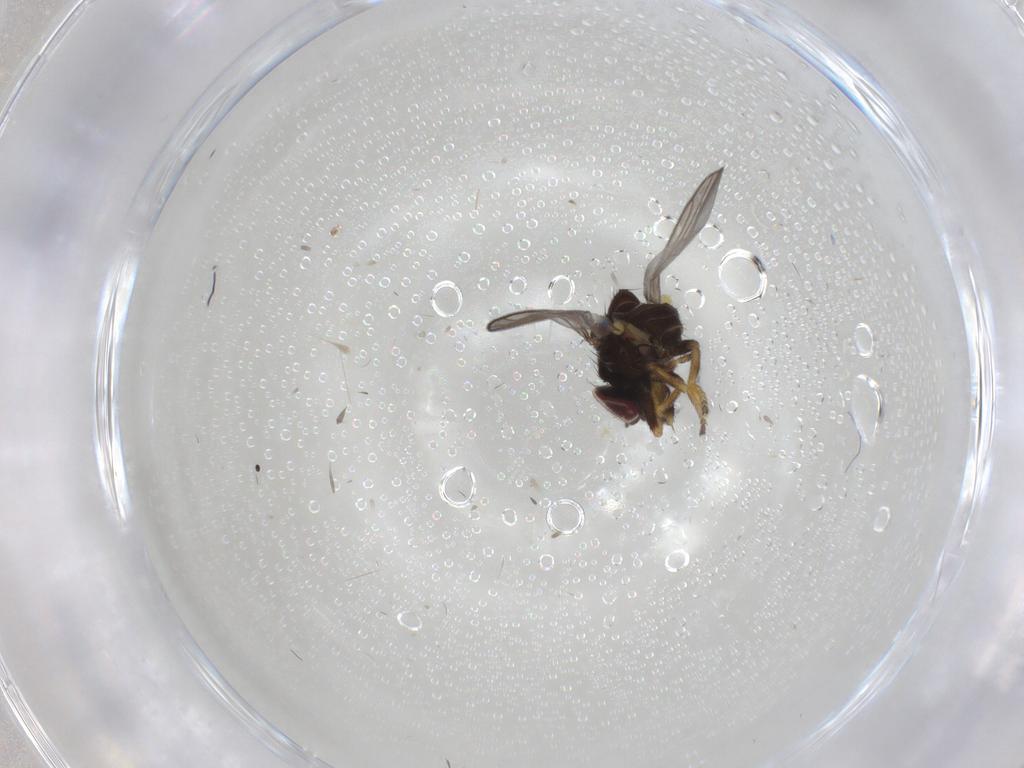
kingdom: Animalia
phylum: Arthropoda
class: Insecta
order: Diptera
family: Chloropidae
